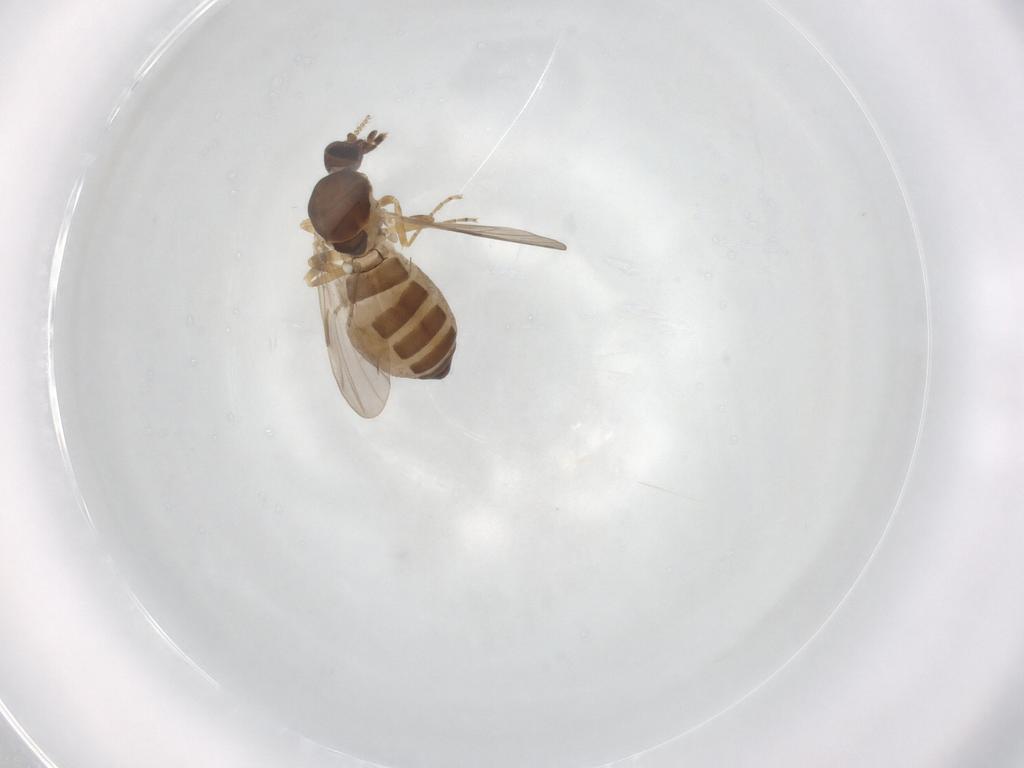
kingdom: Animalia
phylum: Arthropoda
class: Insecta
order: Diptera
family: Ceratopogonidae
